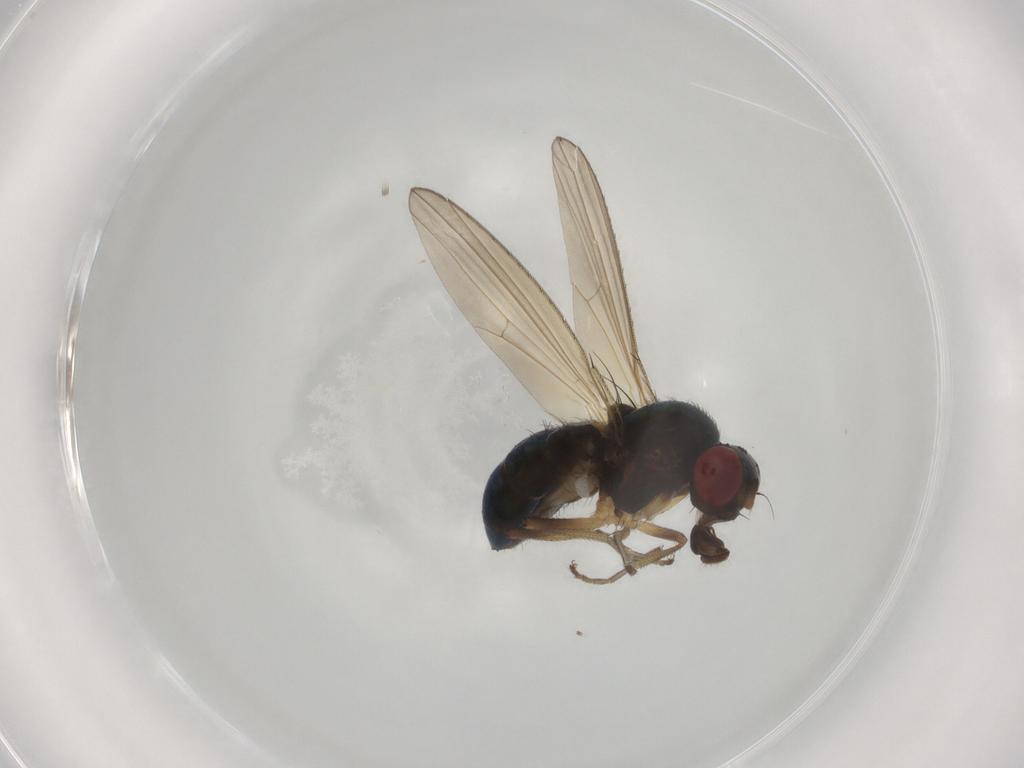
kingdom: Animalia
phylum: Arthropoda
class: Insecta
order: Diptera
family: Camillidae
